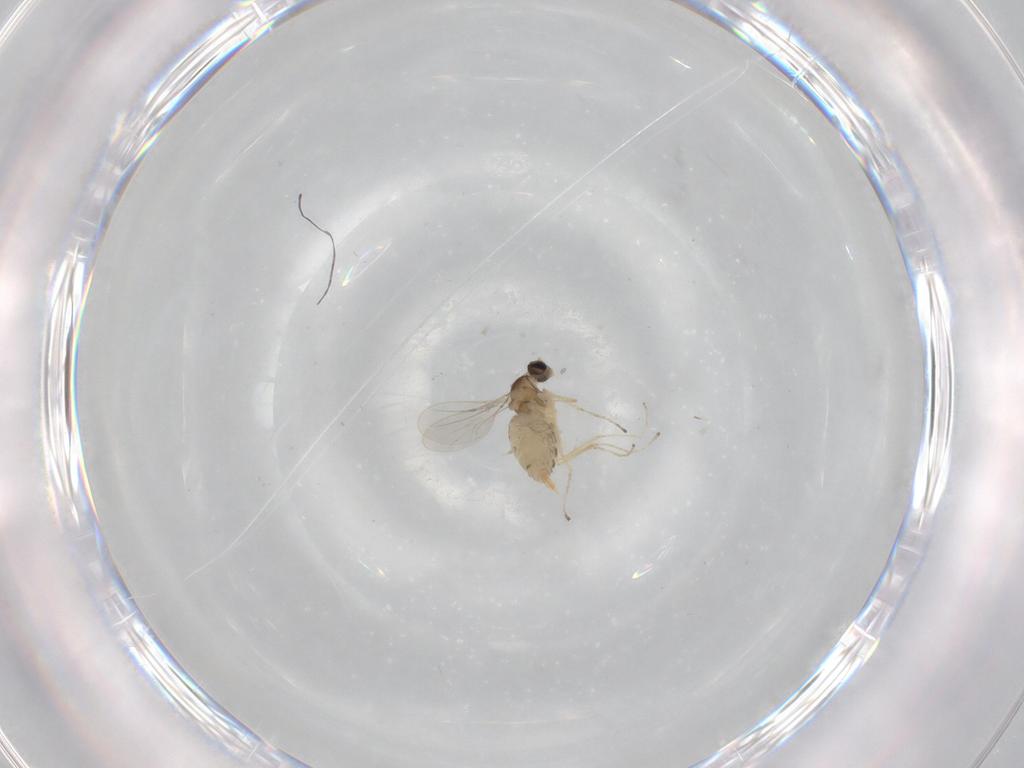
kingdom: Animalia
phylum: Arthropoda
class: Insecta
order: Diptera
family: Cecidomyiidae
